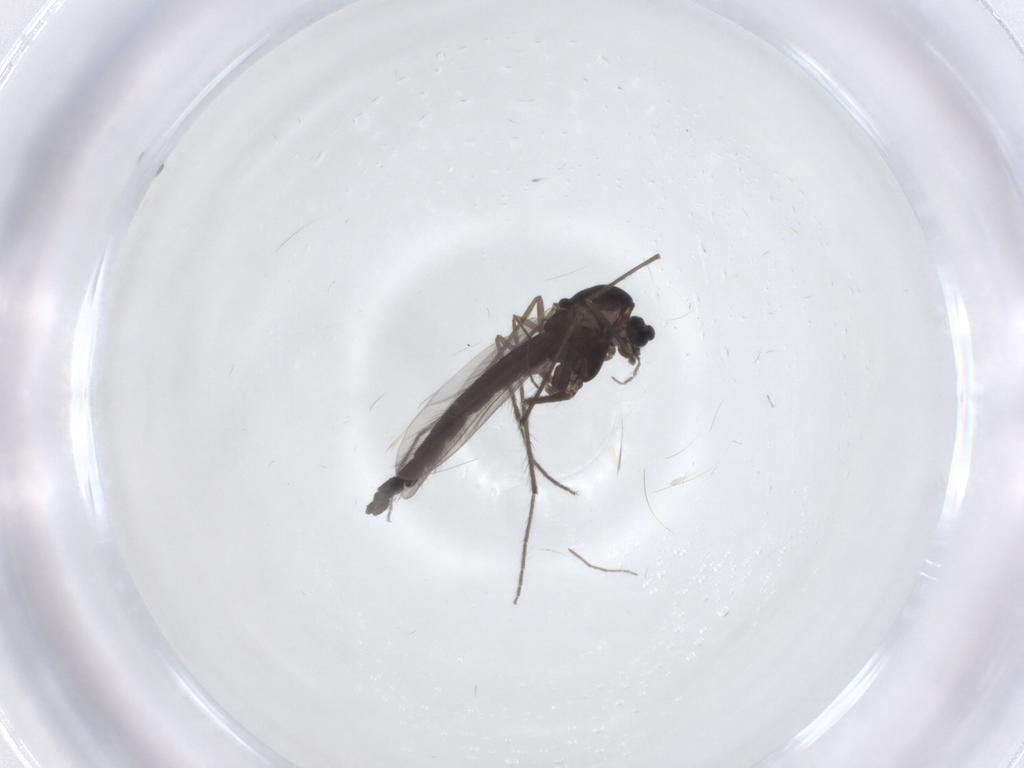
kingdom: Animalia
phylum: Arthropoda
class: Insecta
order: Diptera
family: Chironomidae
